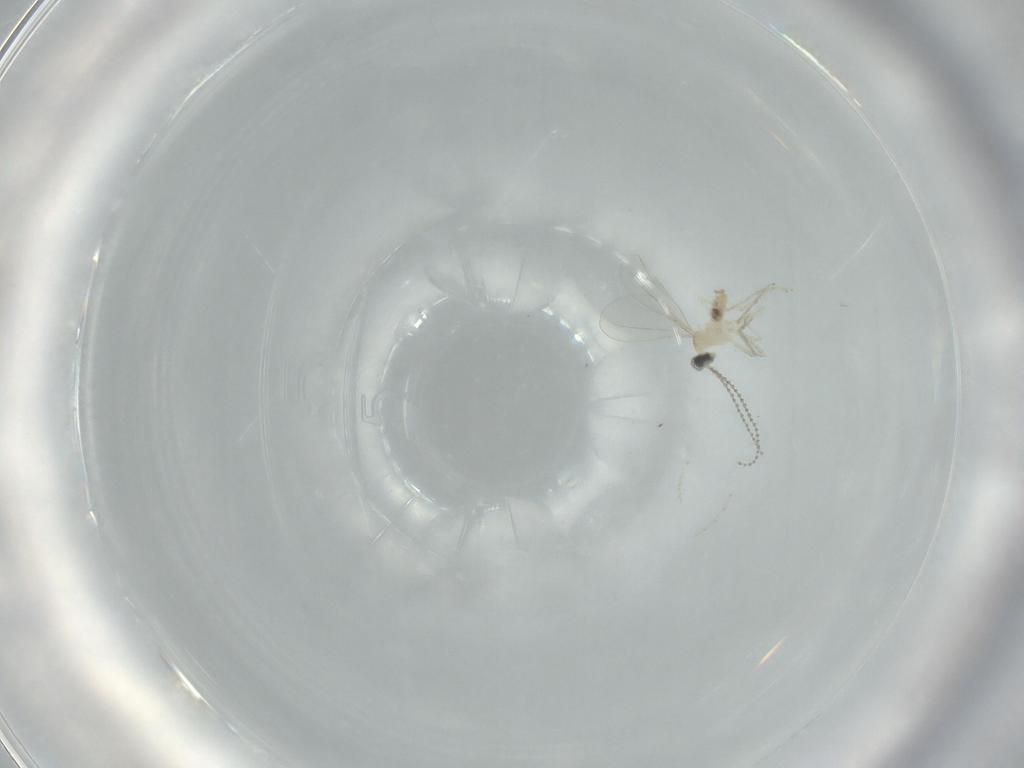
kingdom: Animalia
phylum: Arthropoda
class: Insecta
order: Diptera
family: Cecidomyiidae
